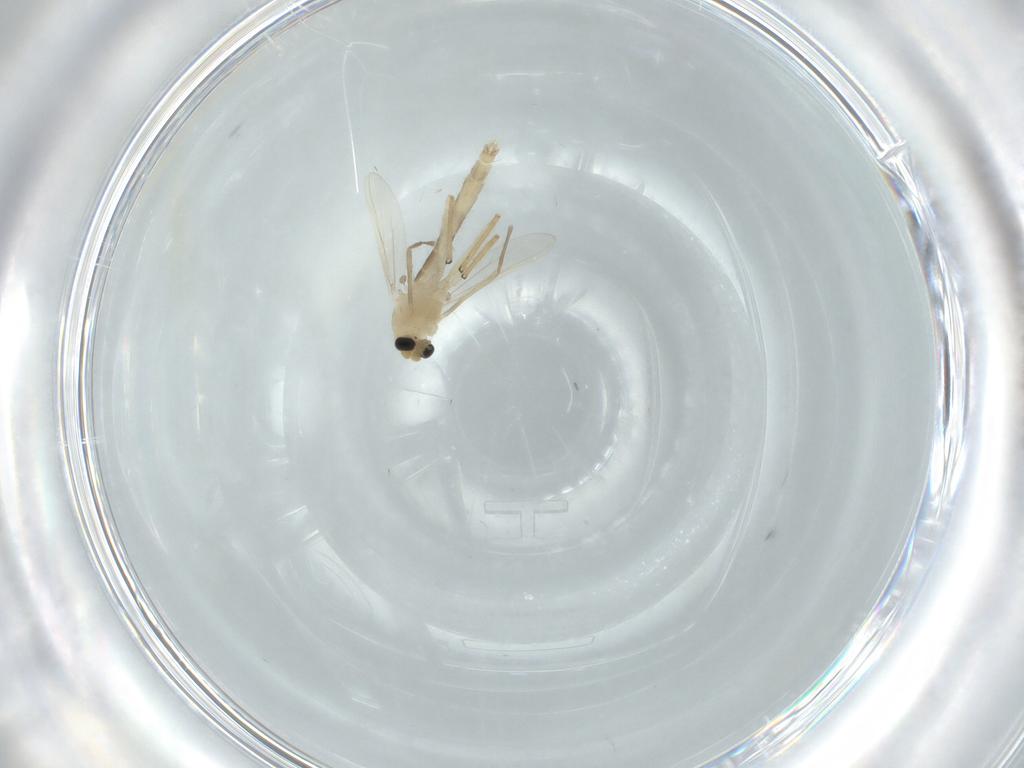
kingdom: Animalia
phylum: Arthropoda
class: Insecta
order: Diptera
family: Chironomidae
